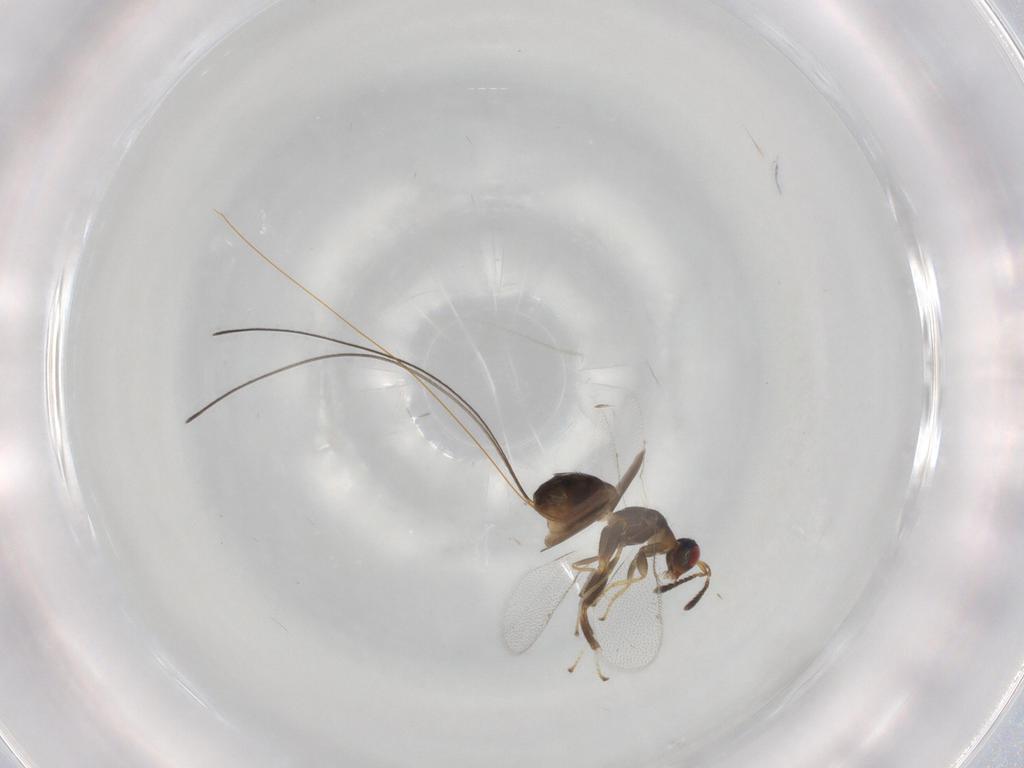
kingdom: Animalia
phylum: Arthropoda
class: Insecta
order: Hymenoptera
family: Torymidae
